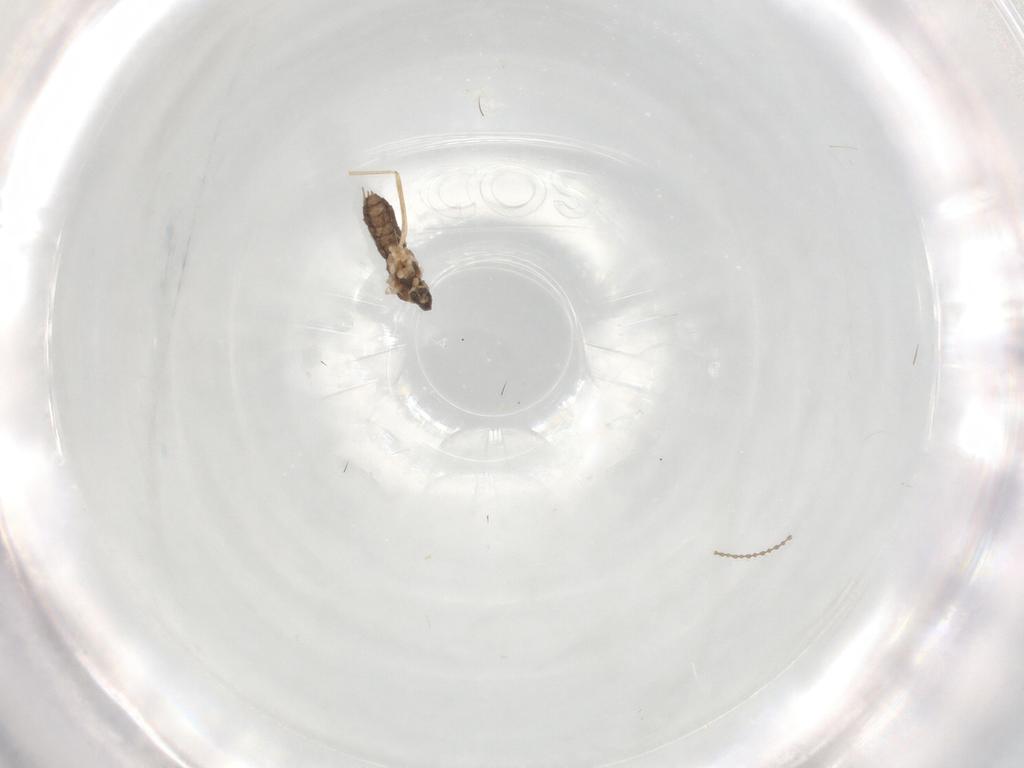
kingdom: Animalia
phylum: Arthropoda
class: Insecta
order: Diptera
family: Cecidomyiidae
